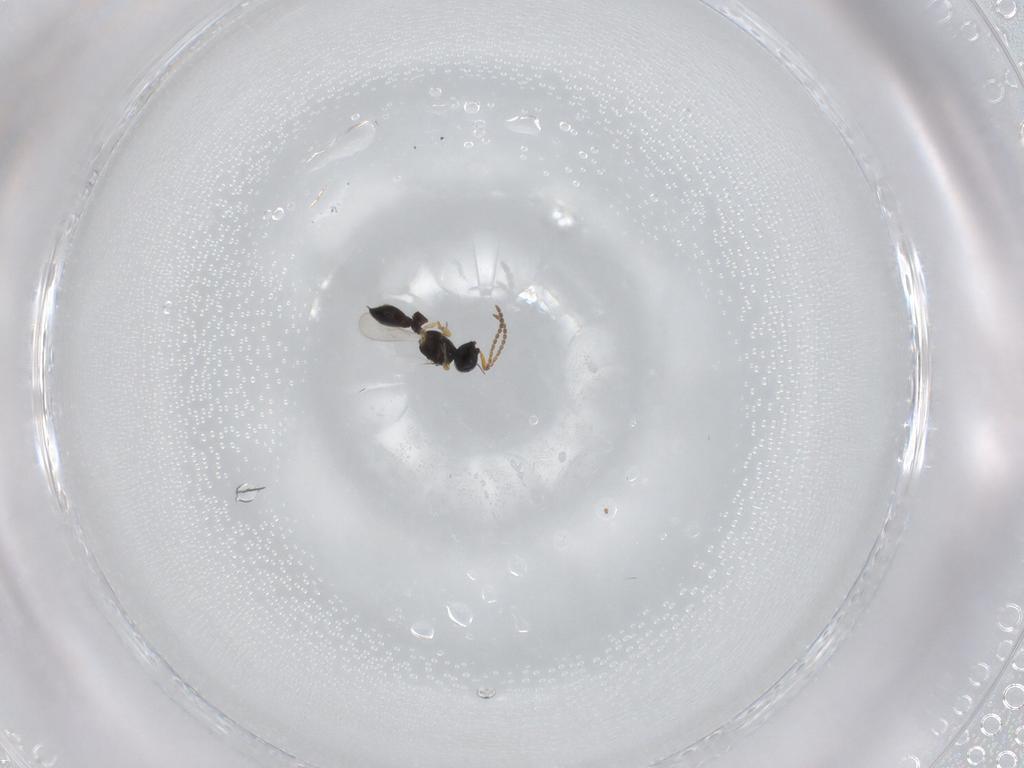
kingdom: Animalia
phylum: Arthropoda
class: Insecta
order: Hymenoptera
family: Scelionidae
